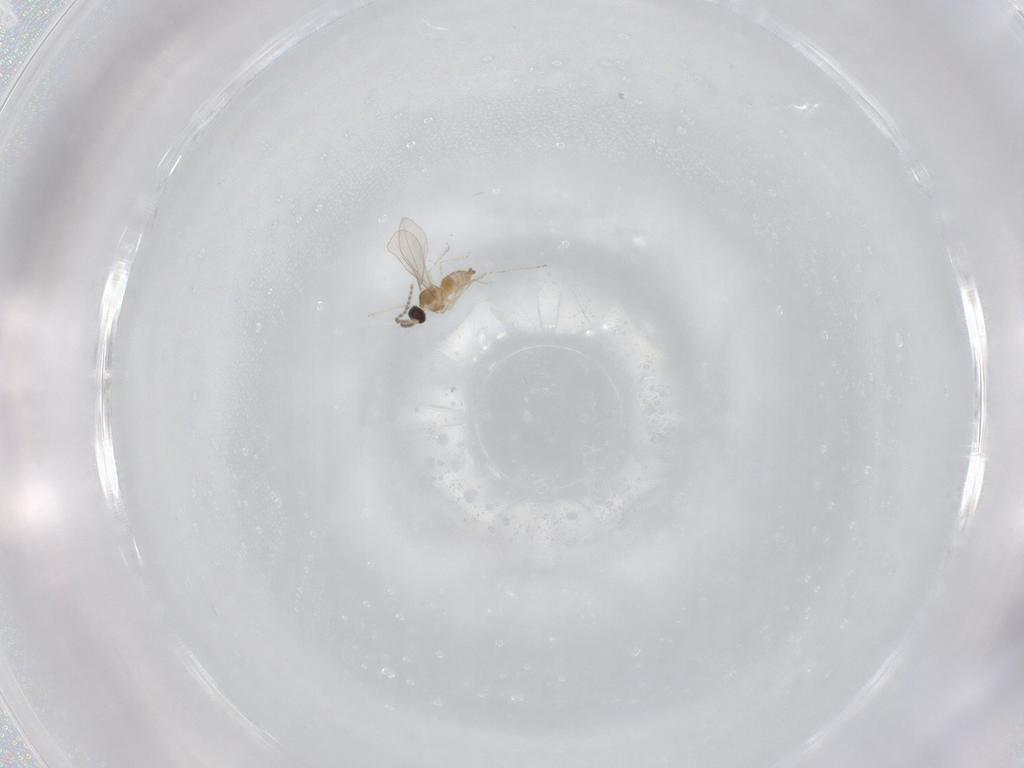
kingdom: Animalia
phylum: Arthropoda
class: Insecta
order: Diptera
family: Cecidomyiidae
